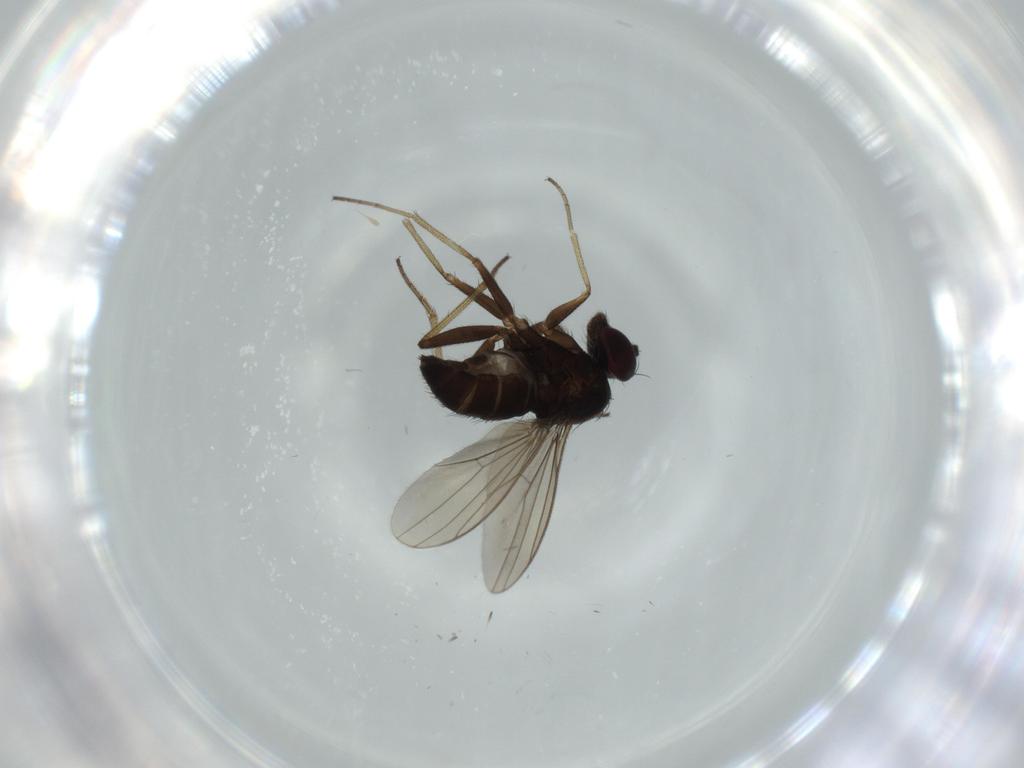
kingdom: Animalia
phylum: Arthropoda
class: Insecta
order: Diptera
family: Dolichopodidae
